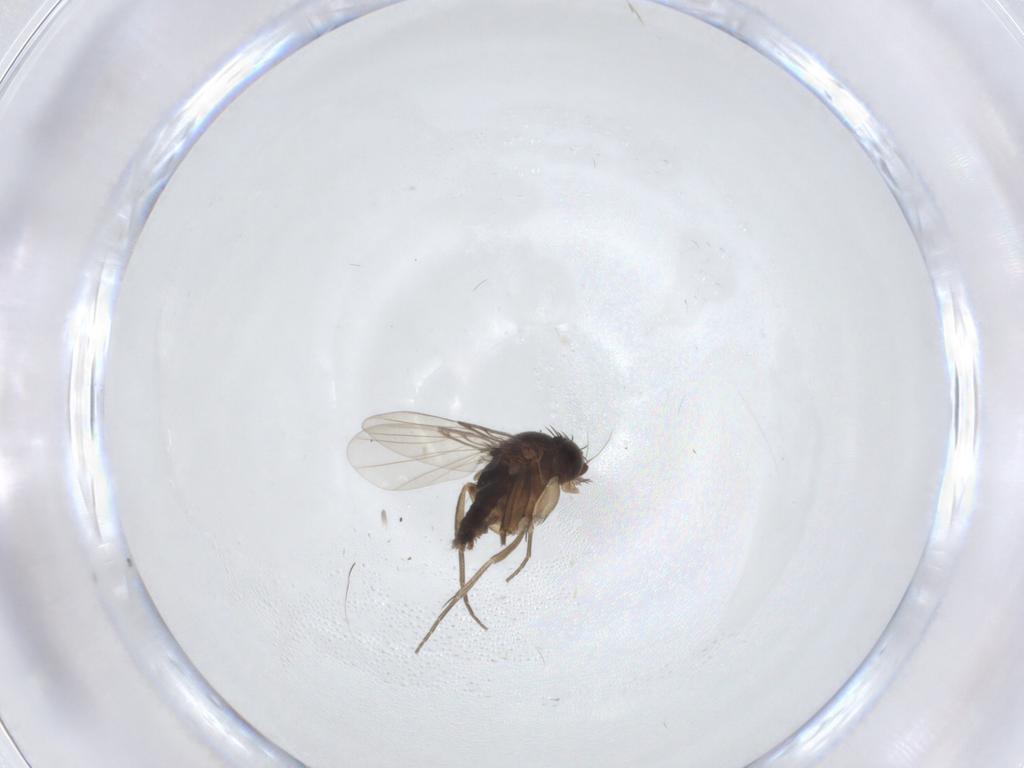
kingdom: Animalia
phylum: Arthropoda
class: Insecta
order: Diptera
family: Phoridae
